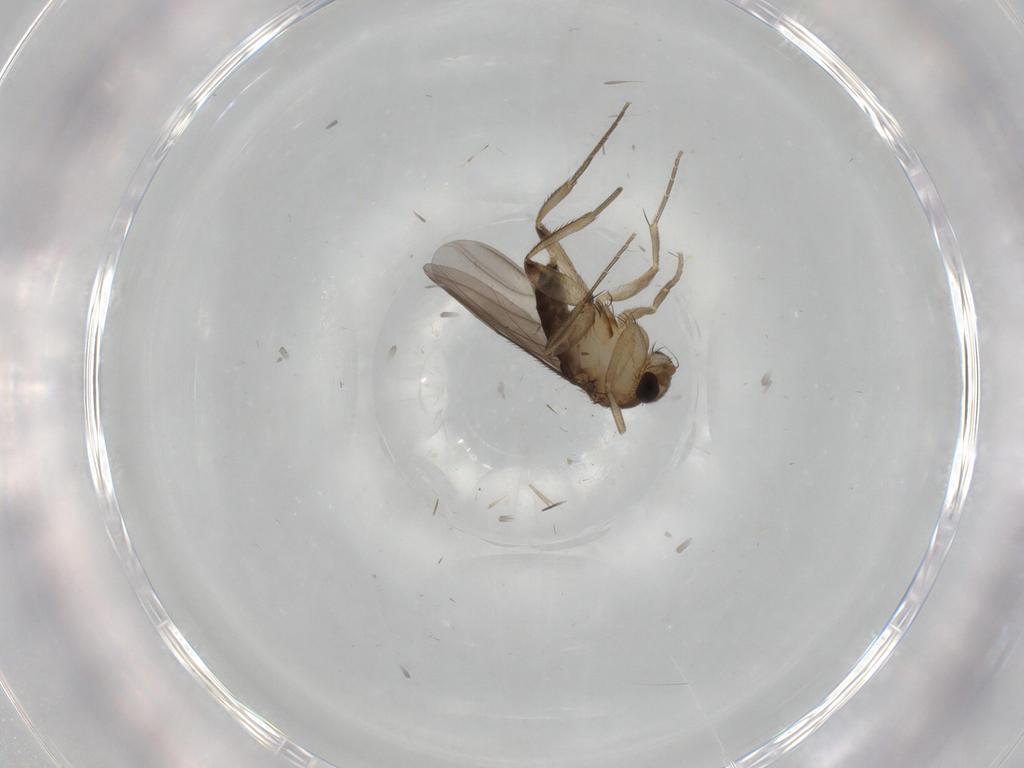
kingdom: Animalia
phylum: Arthropoda
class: Insecta
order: Diptera
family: Phoridae
